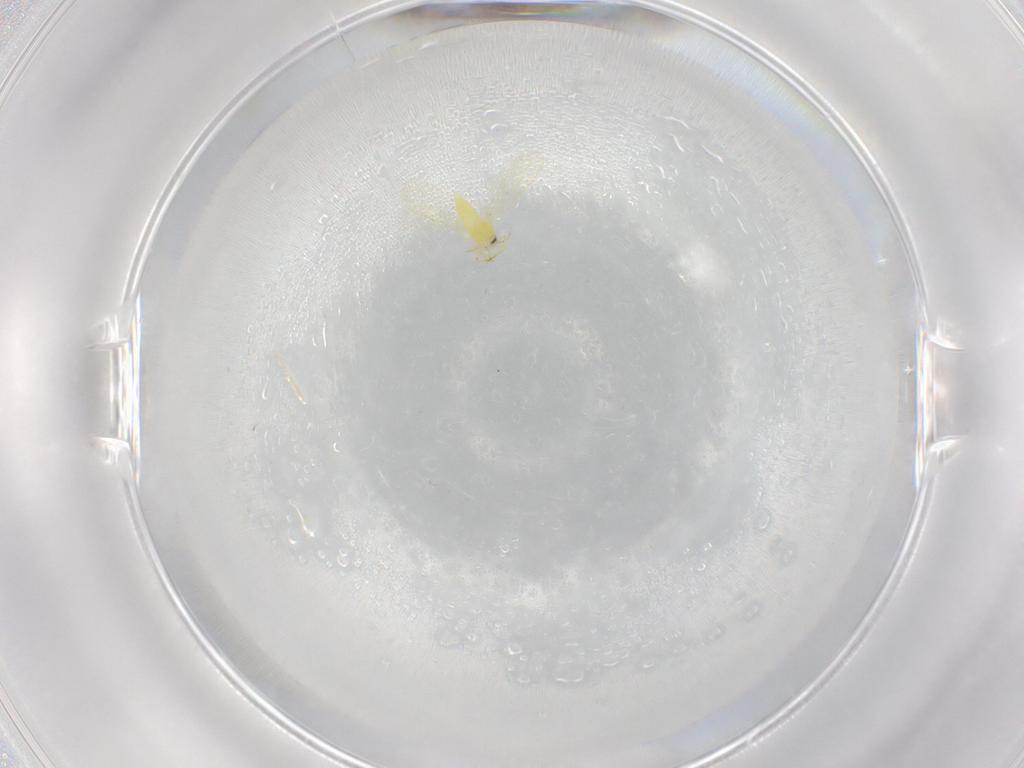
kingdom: Animalia
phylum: Arthropoda
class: Insecta
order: Hemiptera
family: Aleyrodidae
